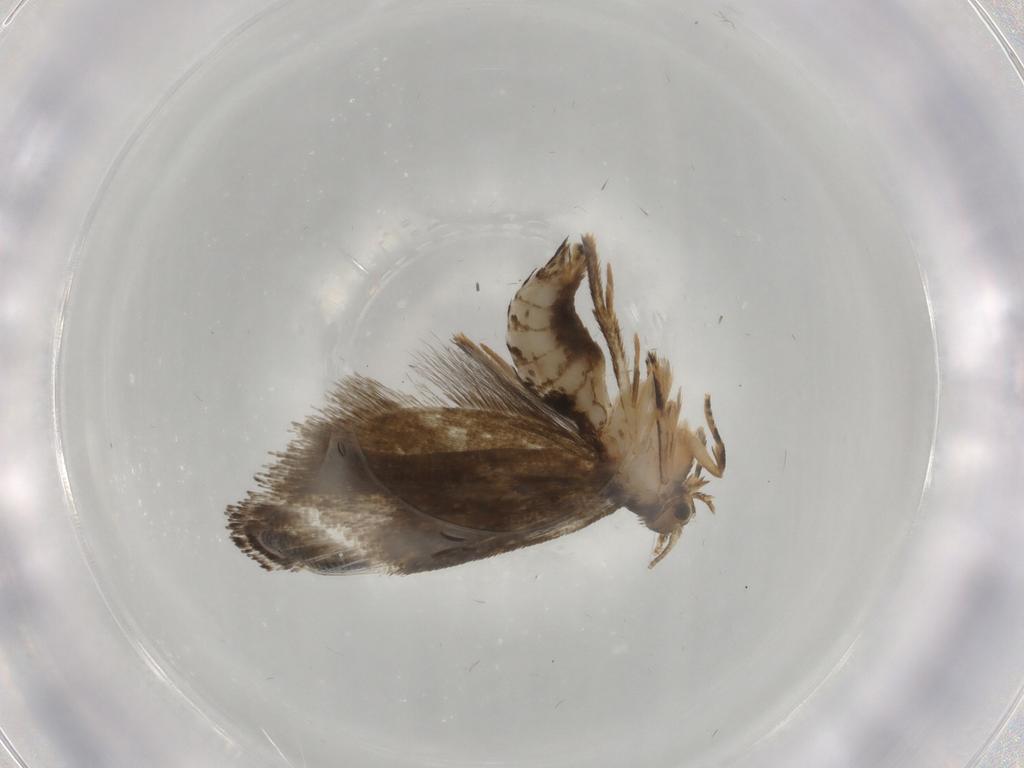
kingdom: Animalia
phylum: Arthropoda
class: Insecta
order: Lepidoptera
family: Crambidae
